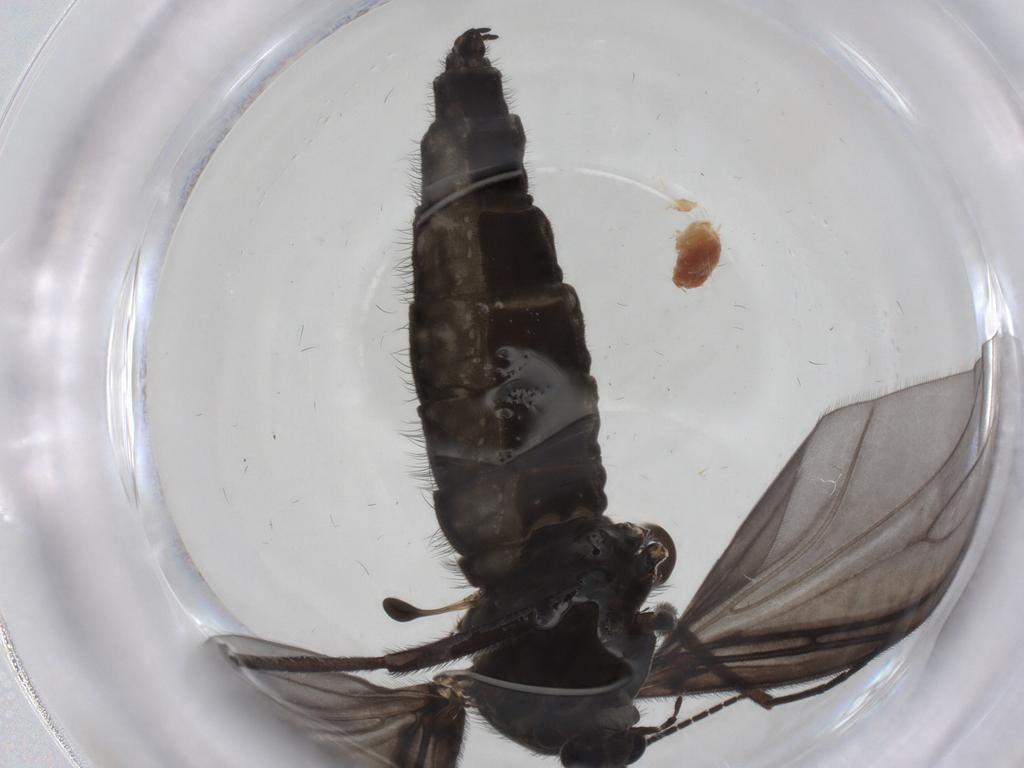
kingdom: Animalia
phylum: Arthropoda
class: Insecta
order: Diptera
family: Sciaridae
